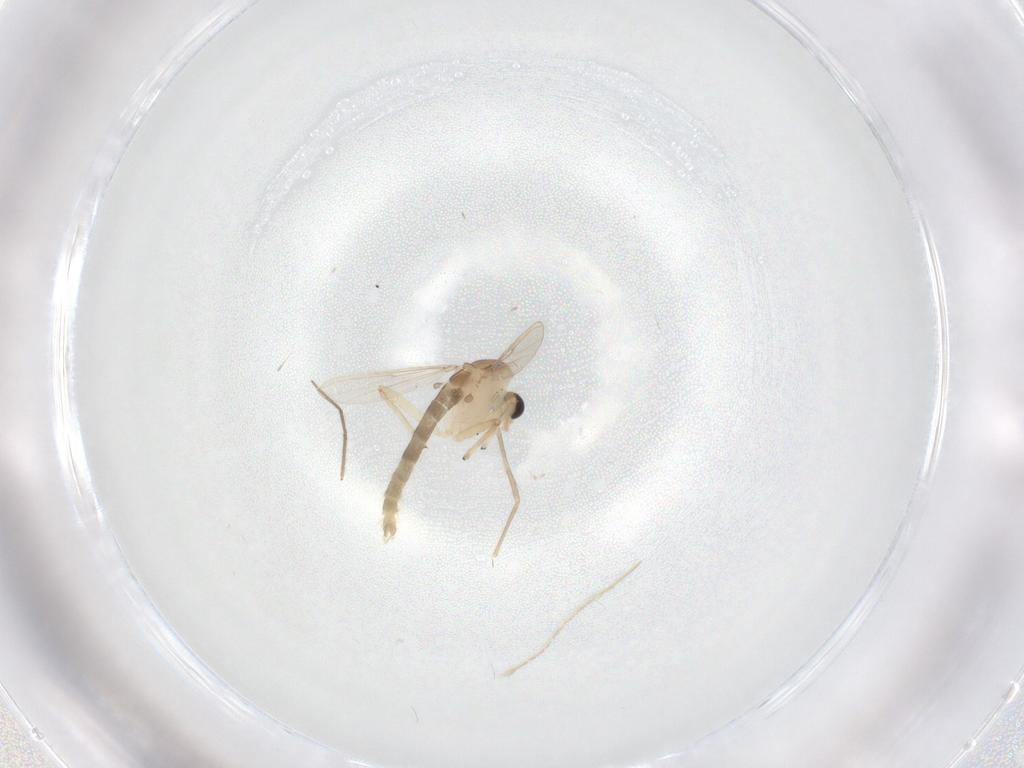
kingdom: Animalia
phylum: Arthropoda
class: Insecta
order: Diptera
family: Chironomidae
